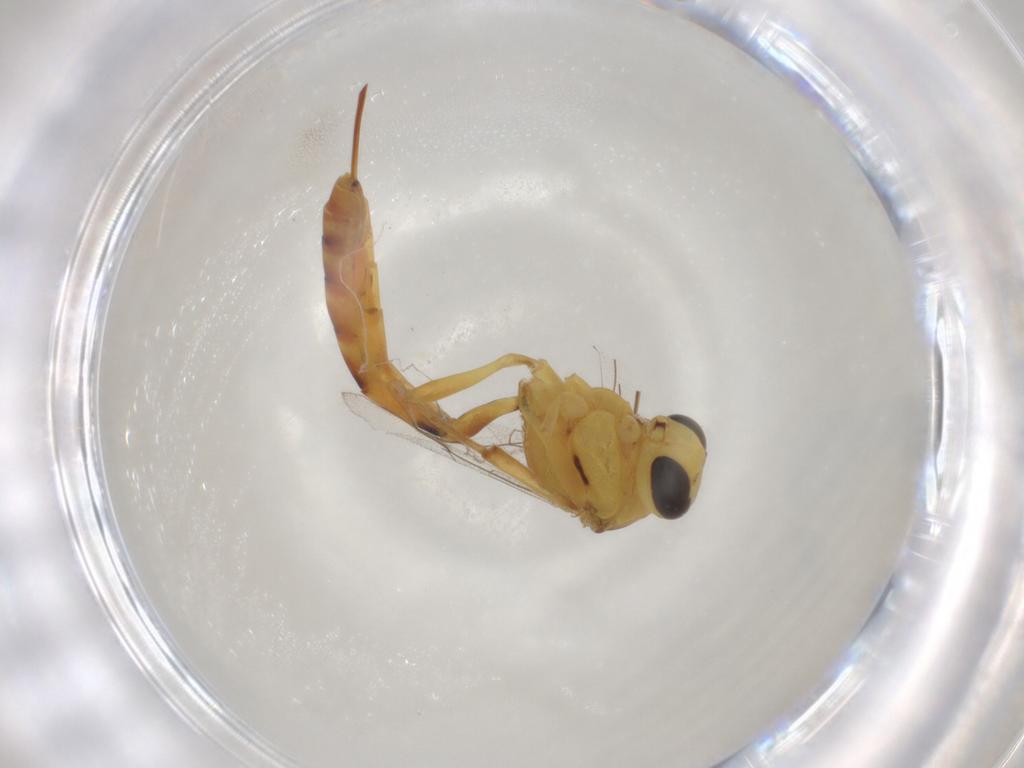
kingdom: Animalia
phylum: Arthropoda
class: Insecta
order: Hymenoptera
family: Ichneumonidae
